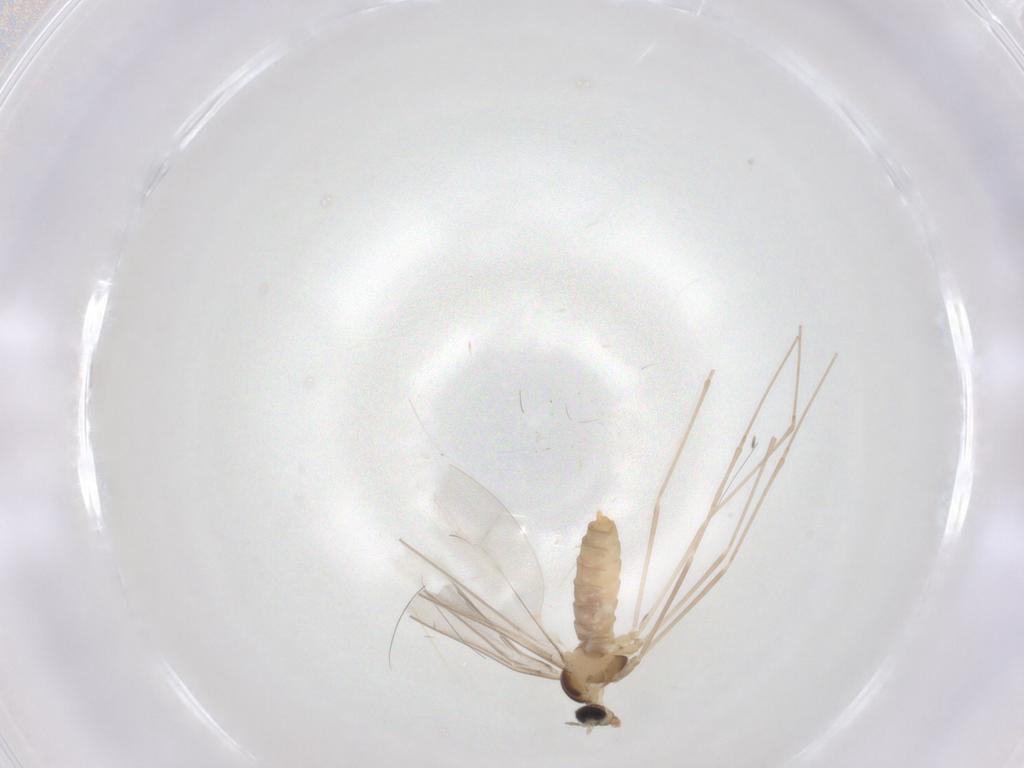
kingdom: Animalia
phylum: Arthropoda
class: Insecta
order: Diptera
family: Cecidomyiidae
